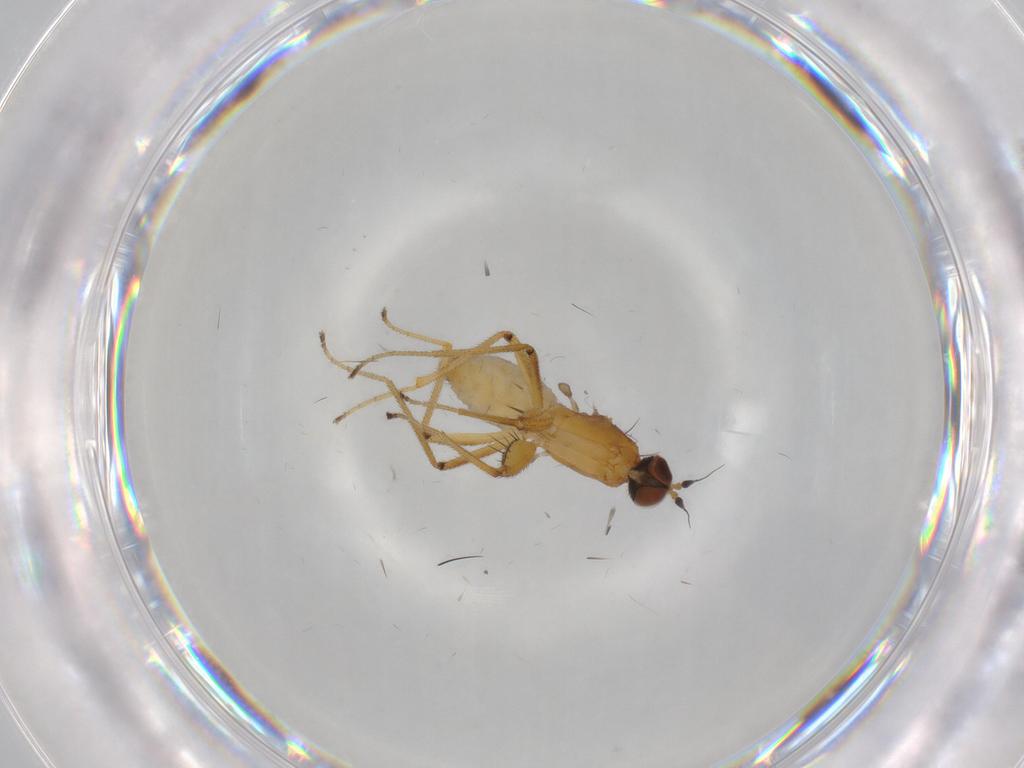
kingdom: Animalia
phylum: Arthropoda
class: Insecta
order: Diptera
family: Empididae
